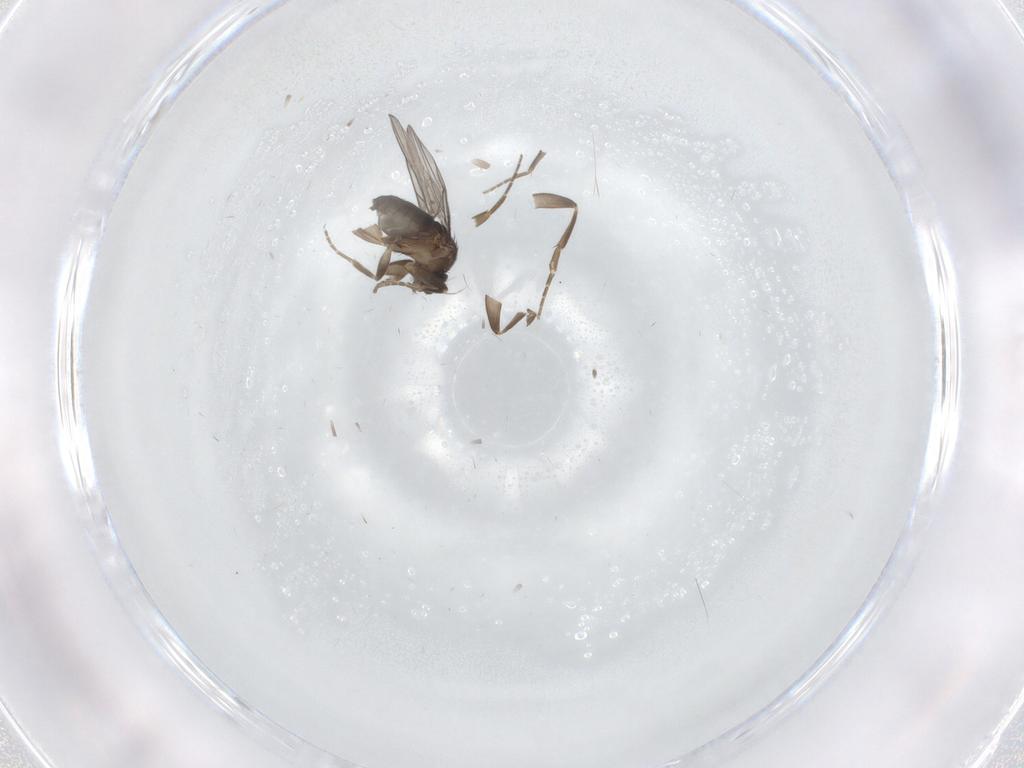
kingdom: Animalia
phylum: Arthropoda
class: Insecta
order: Diptera
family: Phoridae
